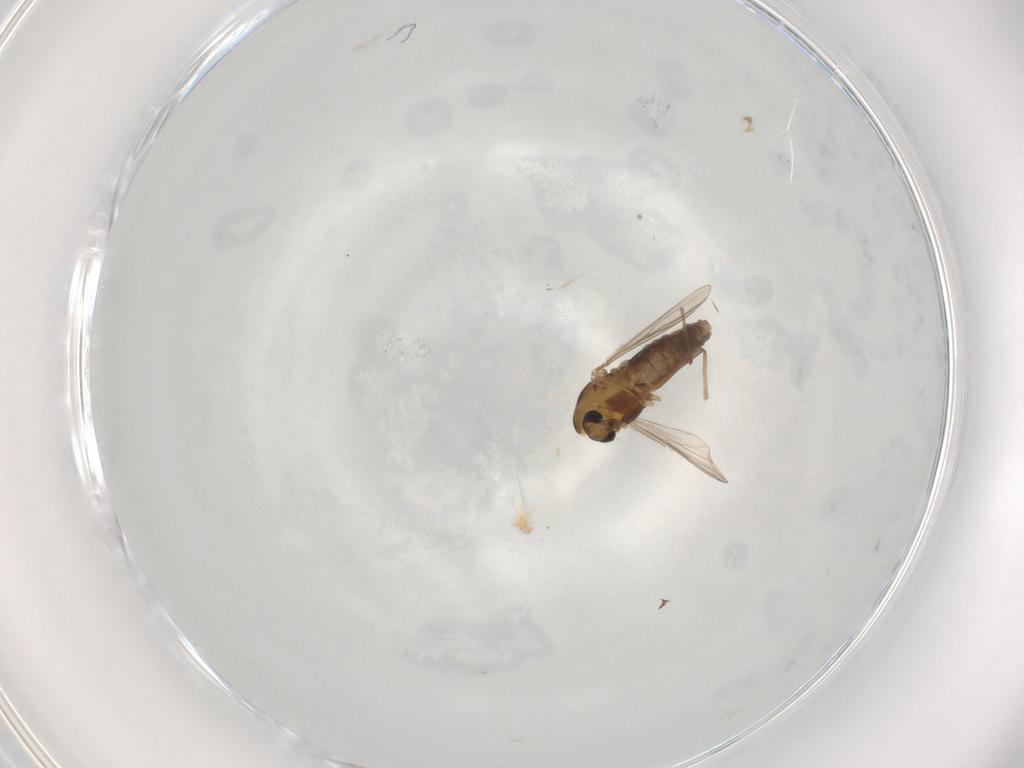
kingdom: Animalia
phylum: Arthropoda
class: Insecta
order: Diptera
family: Chironomidae
